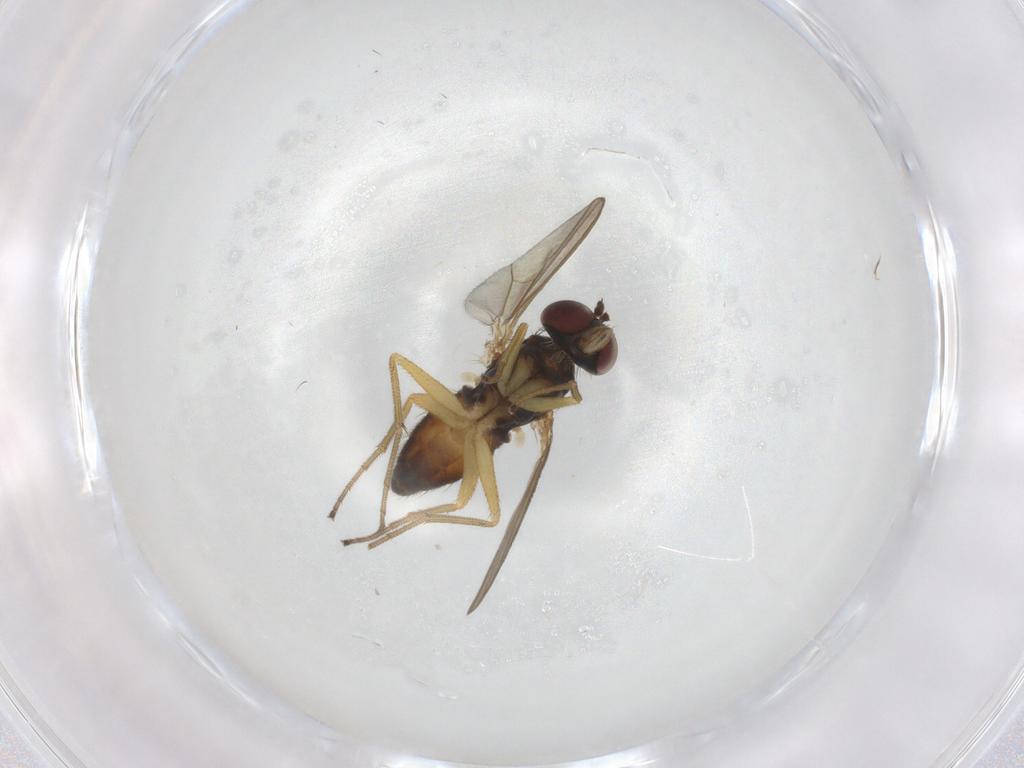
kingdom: Animalia
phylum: Arthropoda
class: Insecta
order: Diptera
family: Dolichopodidae
